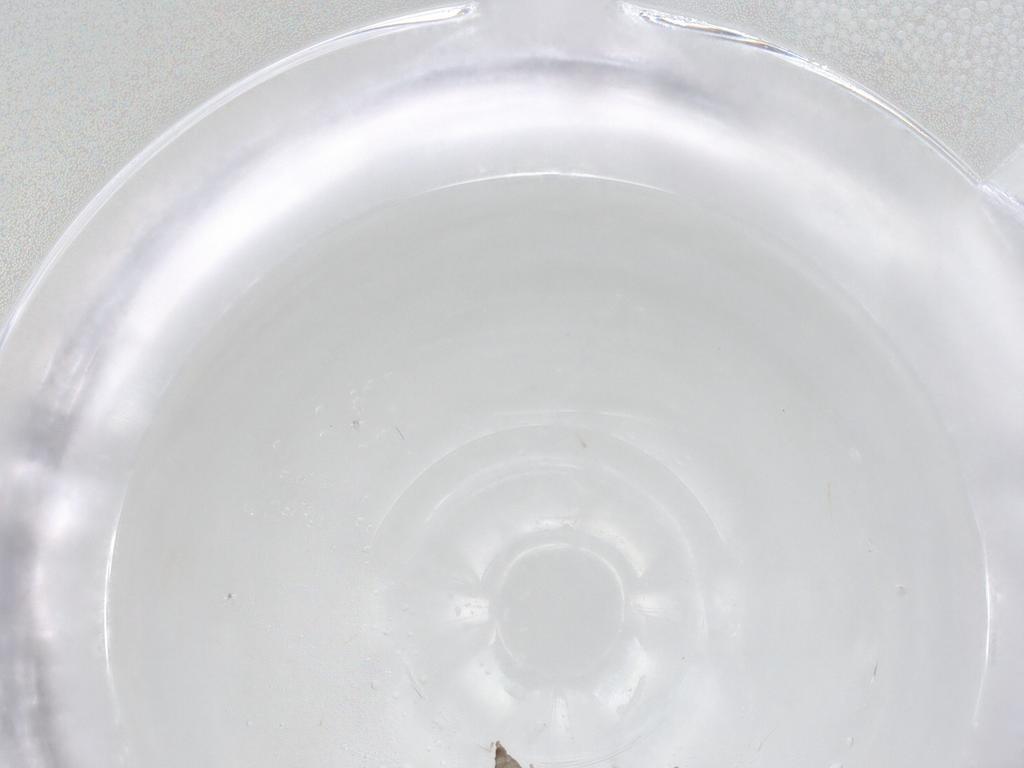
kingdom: Animalia
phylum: Arthropoda
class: Insecta
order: Diptera
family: Cecidomyiidae
